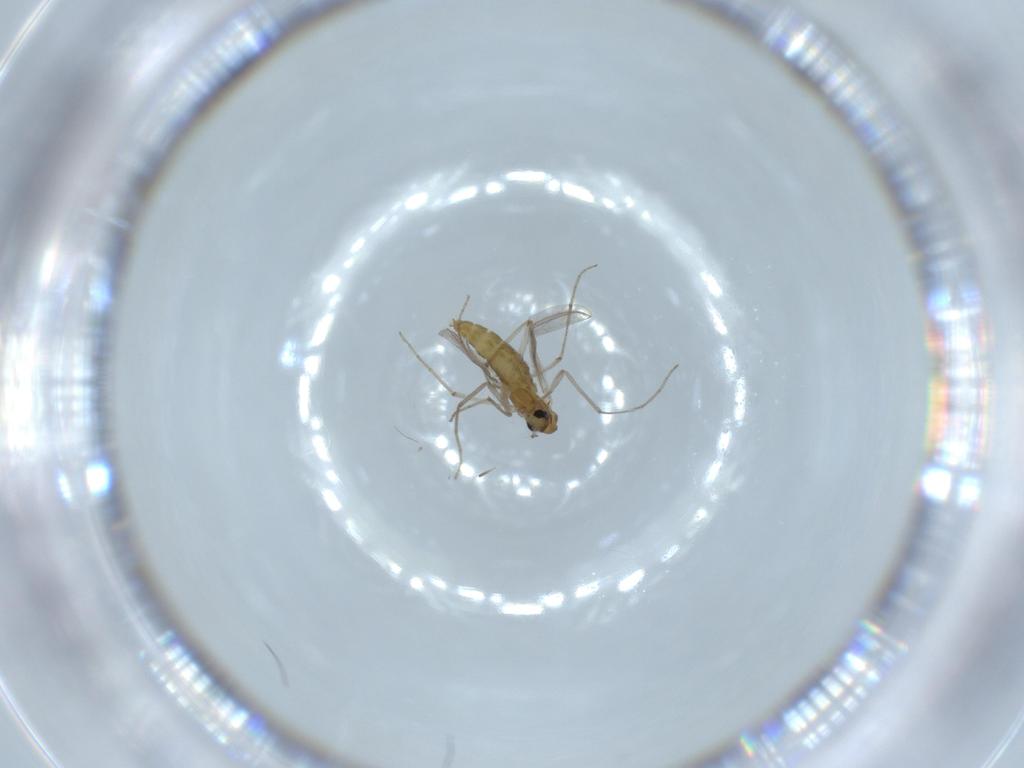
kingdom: Animalia
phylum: Arthropoda
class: Insecta
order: Diptera
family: Chironomidae
